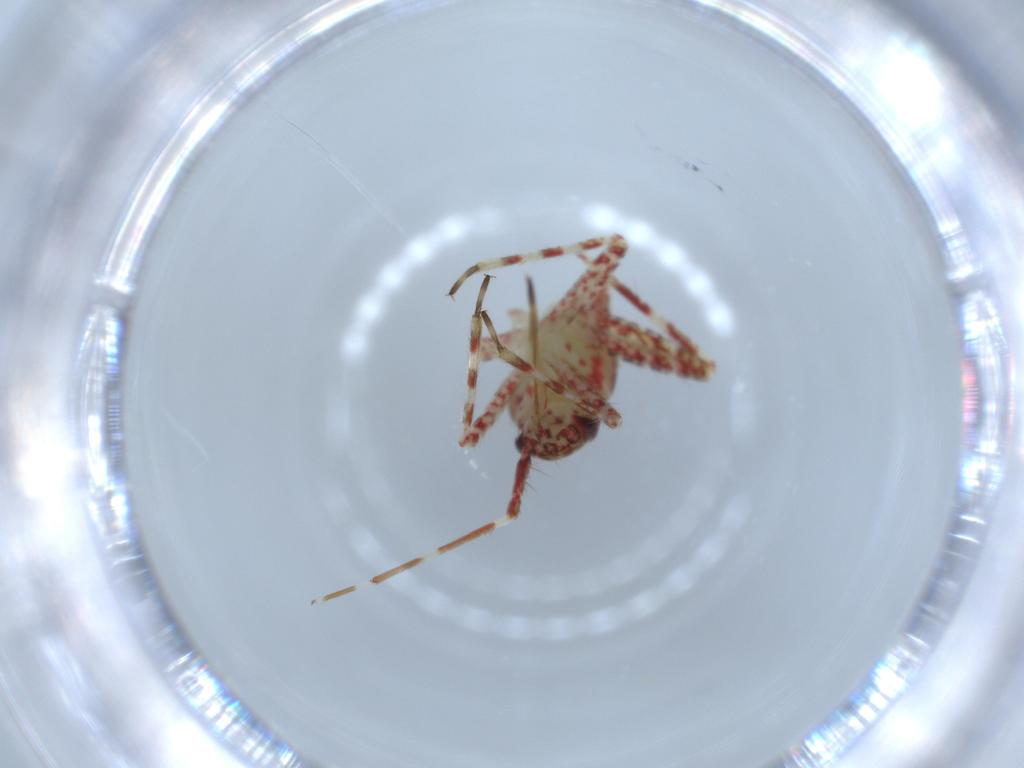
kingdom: Animalia
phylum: Arthropoda
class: Insecta
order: Hemiptera
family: Miridae
